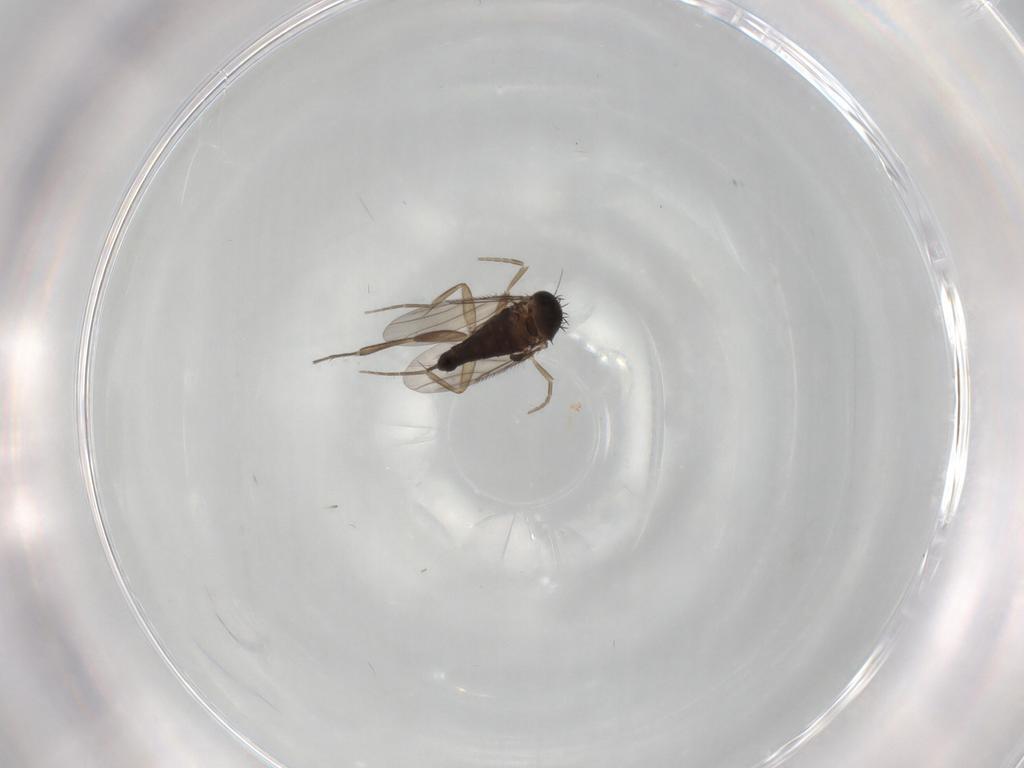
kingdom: Animalia
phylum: Arthropoda
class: Insecta
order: Diptera
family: Phoridae
